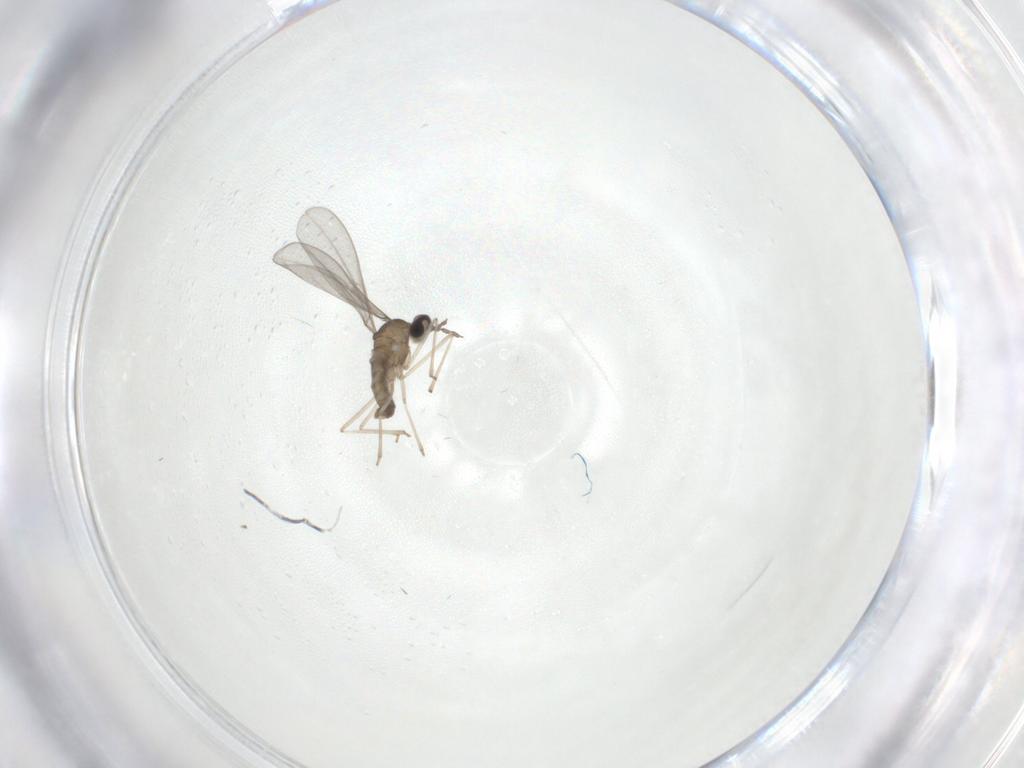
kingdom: Animalia
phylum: Arthropoda
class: Insecta
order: Diptera
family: Cecidomyiidae
